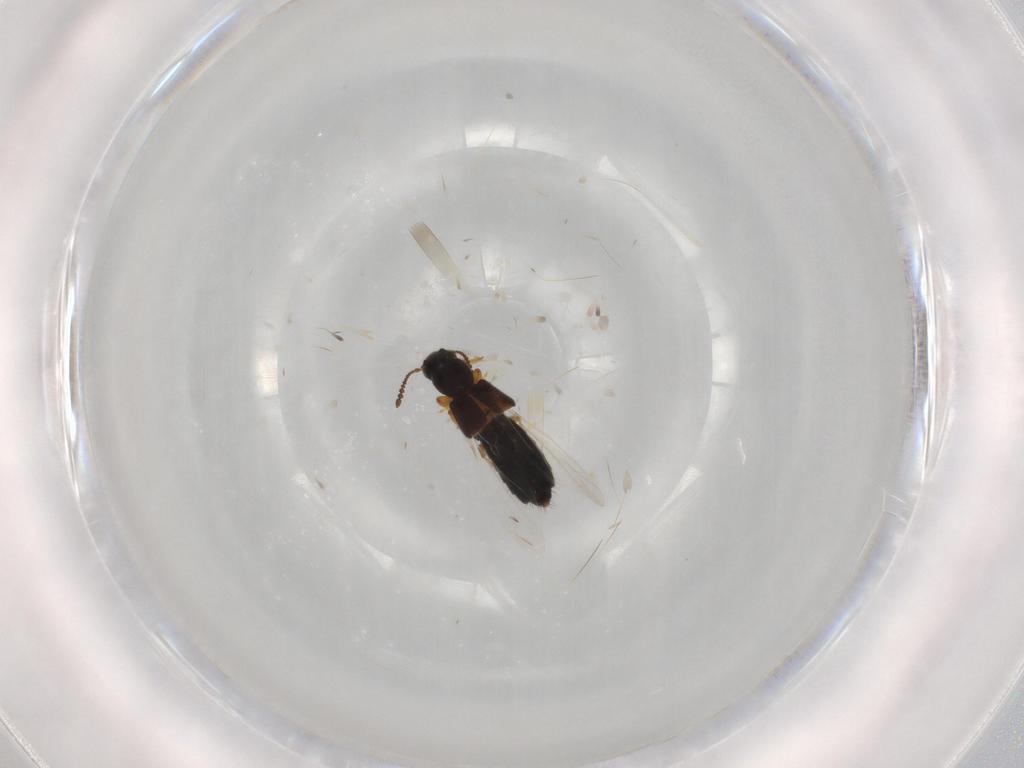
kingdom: Animalia
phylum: Arthropoda
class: Insecta
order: Coleoptera
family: Staphylinidae
